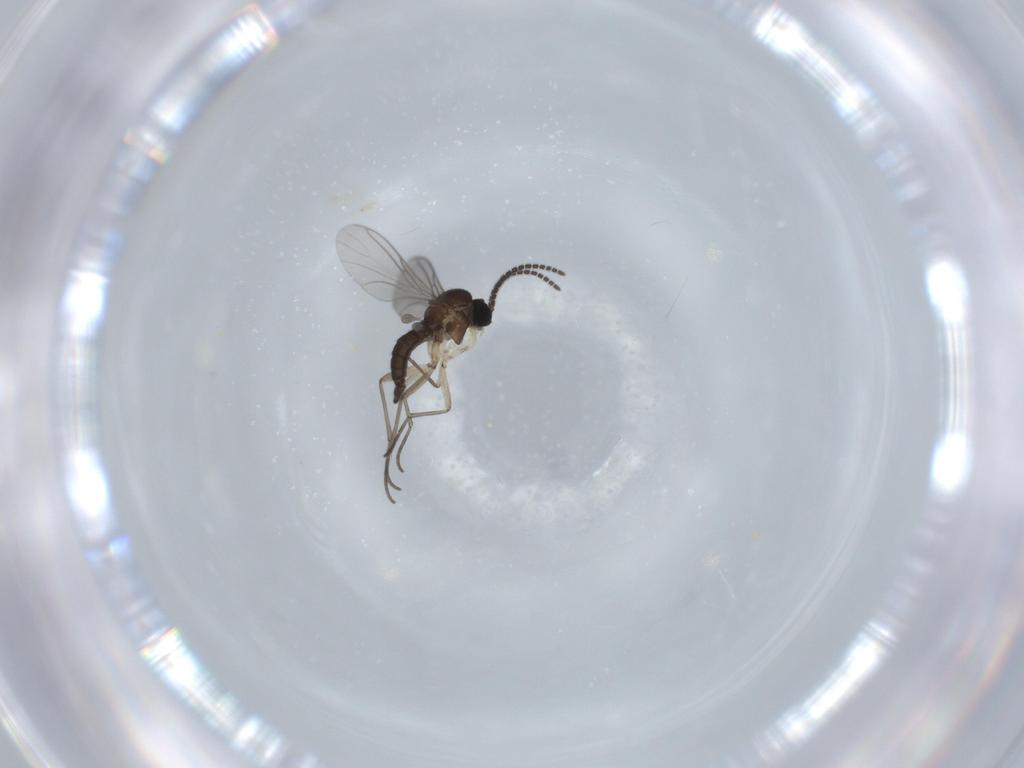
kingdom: Animalia
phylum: Arthropoda
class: Insecta
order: Diptera
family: Sciaridae
